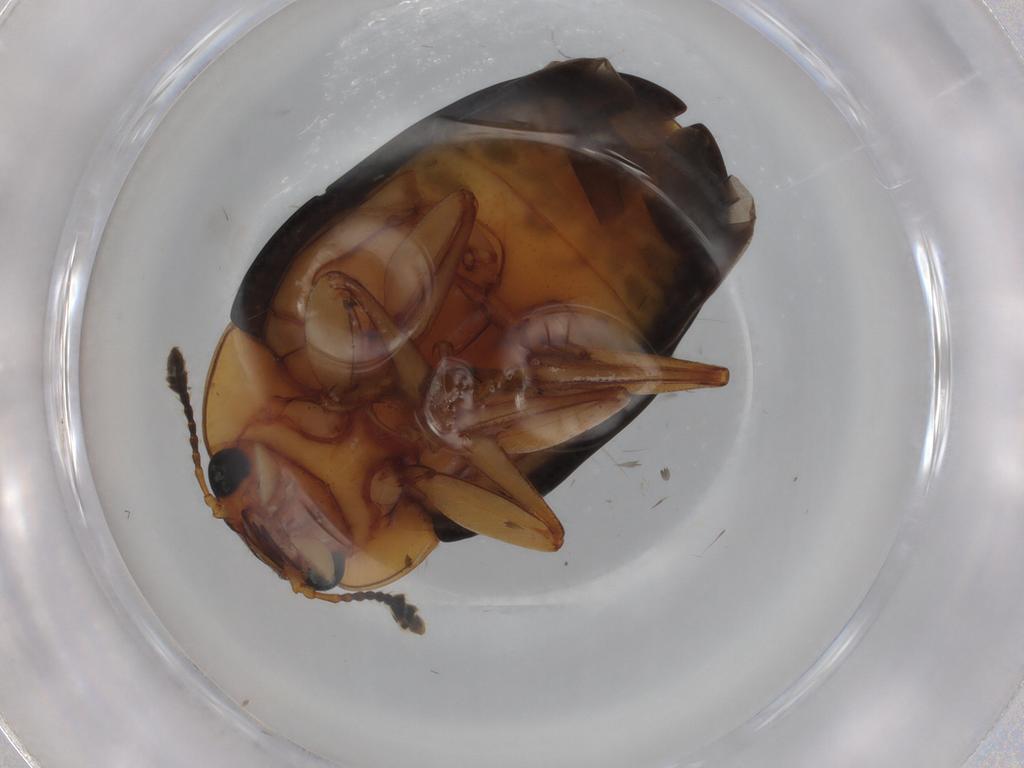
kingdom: Animalia
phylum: Arthropoda
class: Insecta
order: Coleoptera
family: Erotylidae
